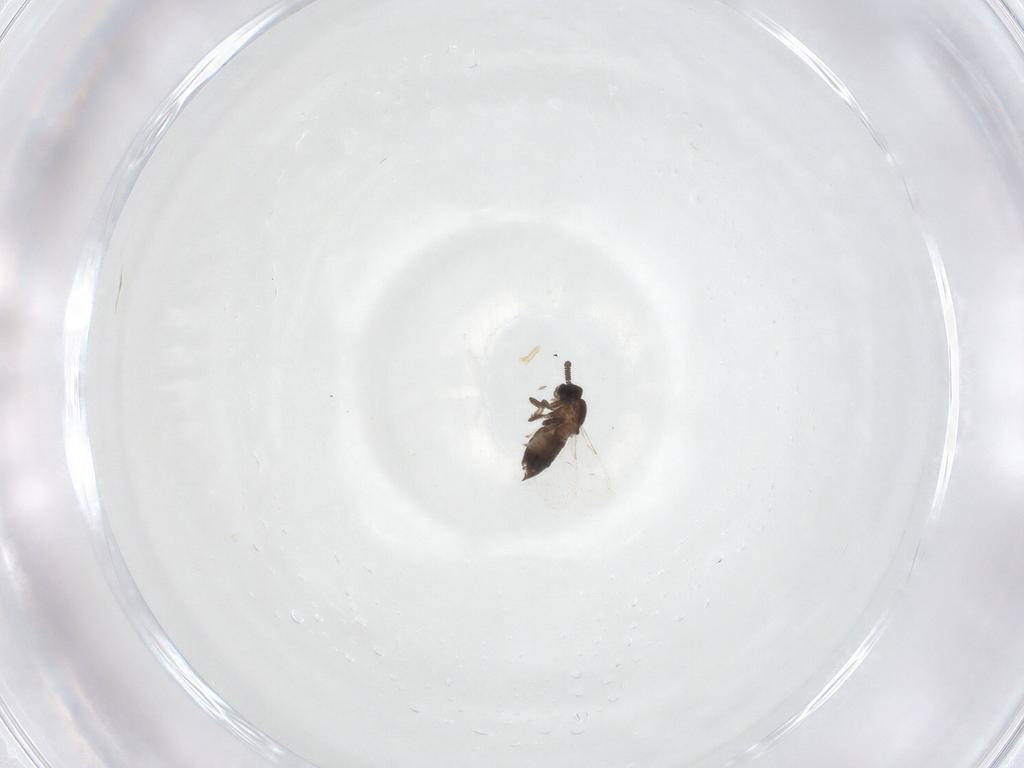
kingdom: Animalia
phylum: Arthropoda
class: Insecta
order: Diptera
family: Scatopsidae
